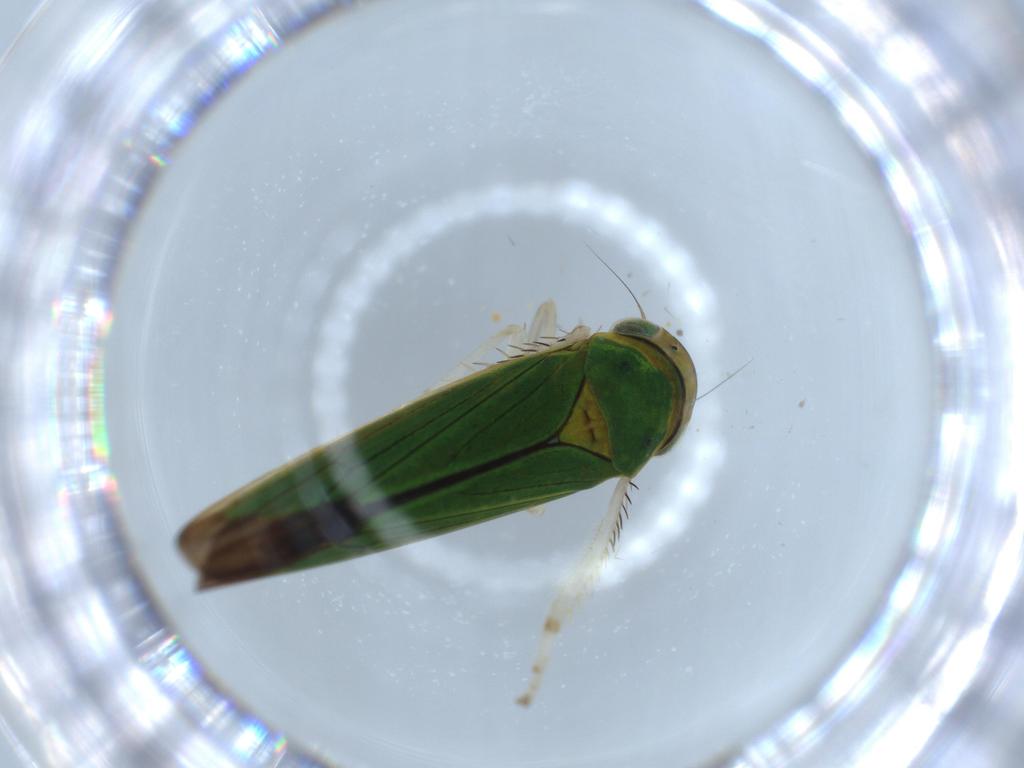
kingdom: Animalia
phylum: Arthropoda
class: Insecta
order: Hemiptera
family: Cicadellidae
